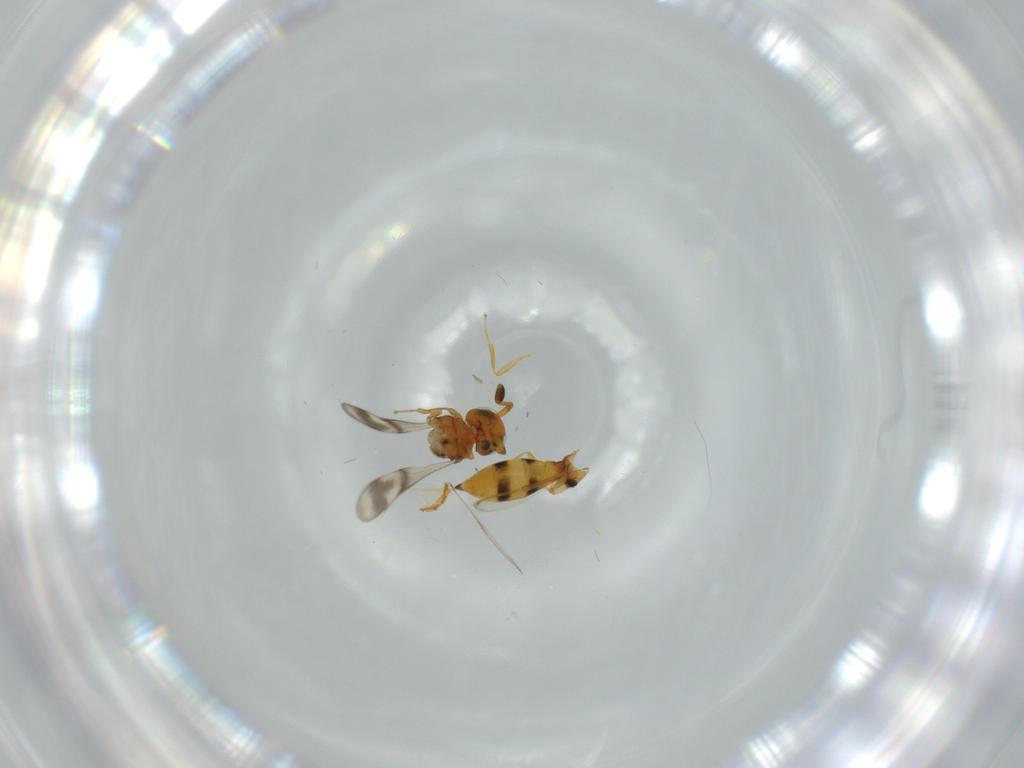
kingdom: Animalia
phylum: Arthropoda
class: Insecta
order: Hymenoptera
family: Scelionidae
